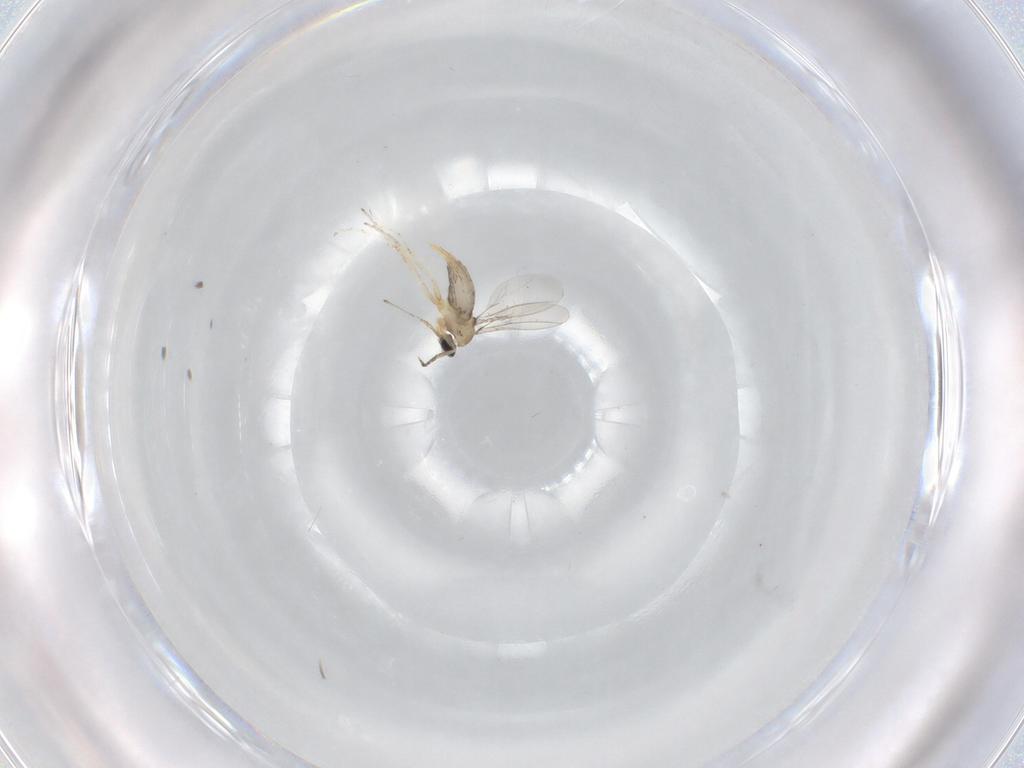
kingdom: Animalia
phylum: Arthropoda
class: Insecta
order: Diptera
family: Cecidomyiidae
